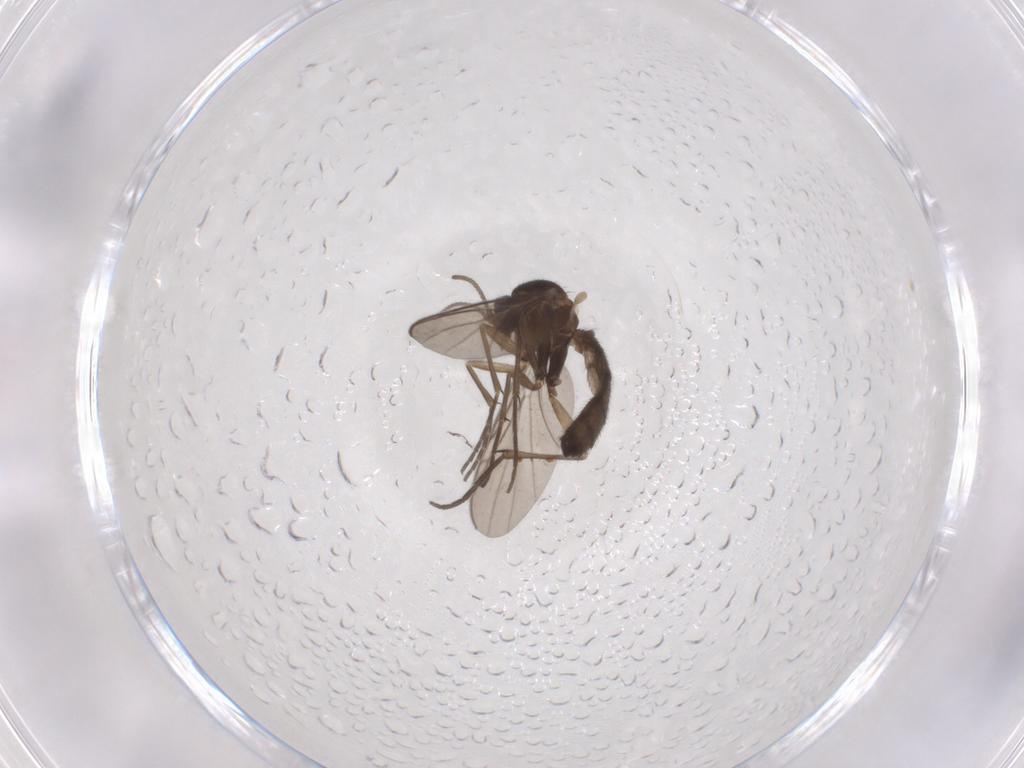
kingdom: Animalia
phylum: Arthropoda
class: Insecta
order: Diptera
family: Keroplatidae
